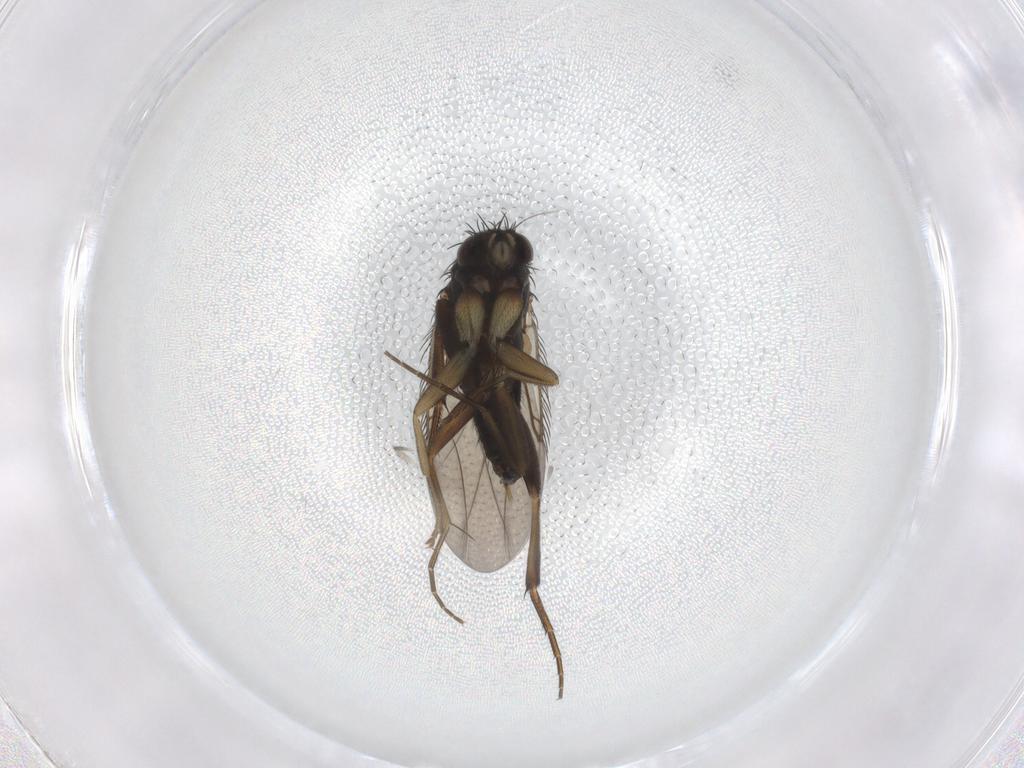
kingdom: Animalia
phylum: Arthropoda
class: Insecta
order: Diptera
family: Phoridae
